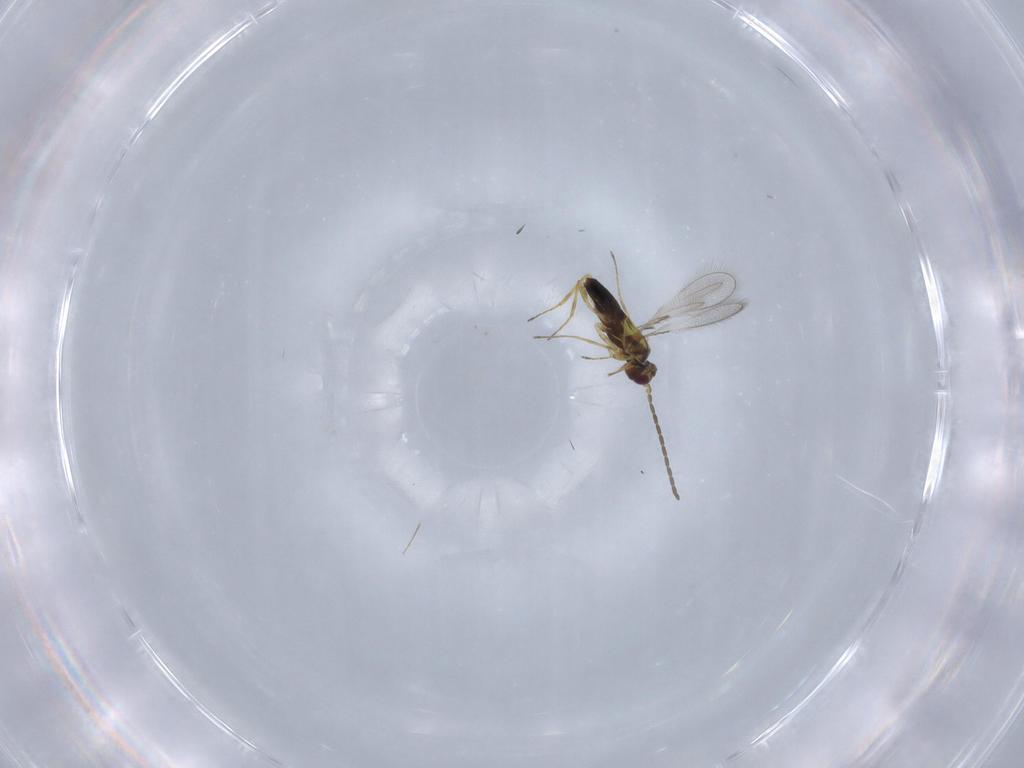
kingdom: Animalia
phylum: Arthropoda
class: Insecta
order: Hymenoptera
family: Mymaridae
